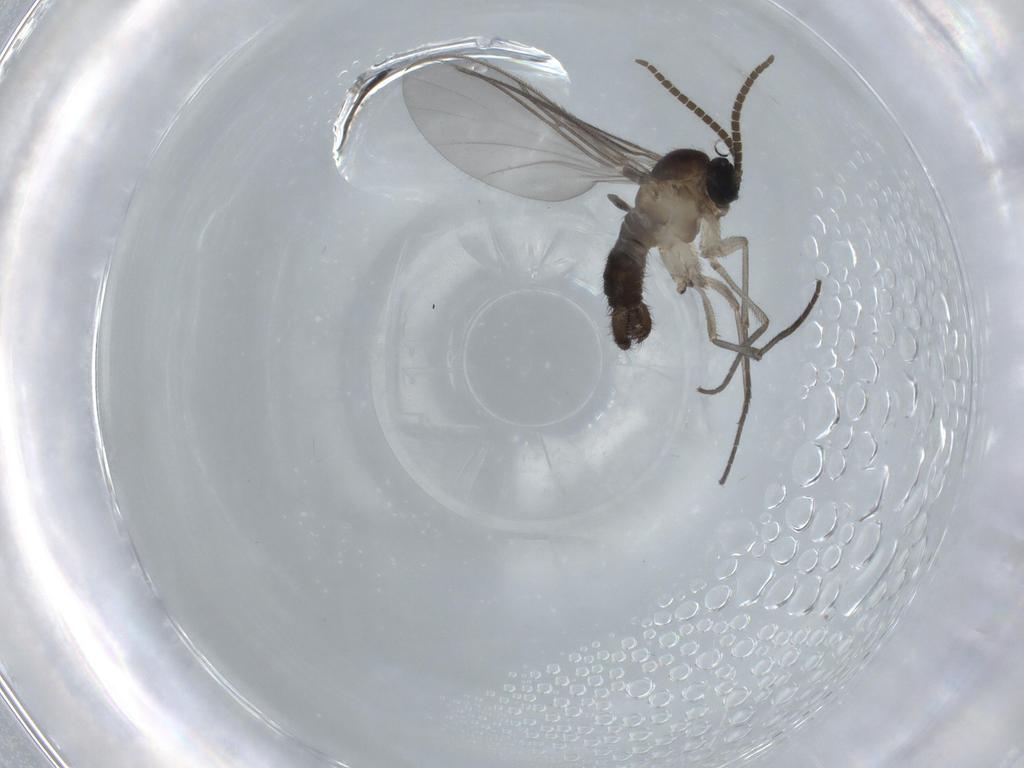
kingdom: Animalia
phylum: Arthropoda
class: Insecta
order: Diptera
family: Sciaridae
